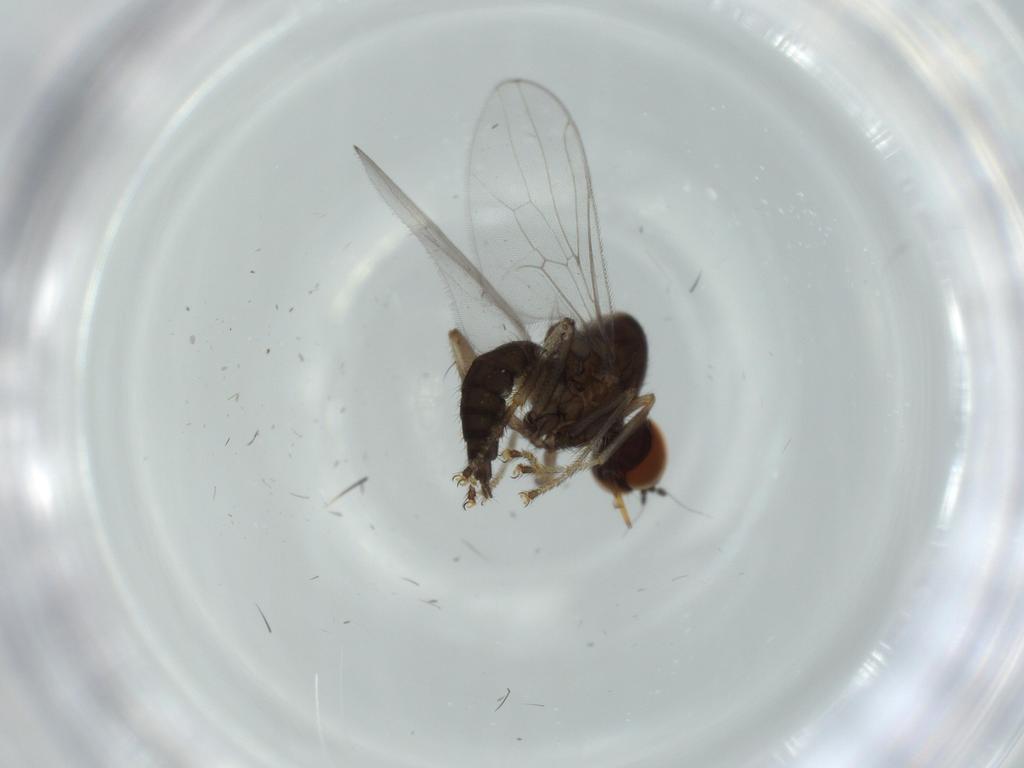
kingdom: Animalia
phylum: Arthropoda
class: Insecta
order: Diptera
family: Hybotidae
